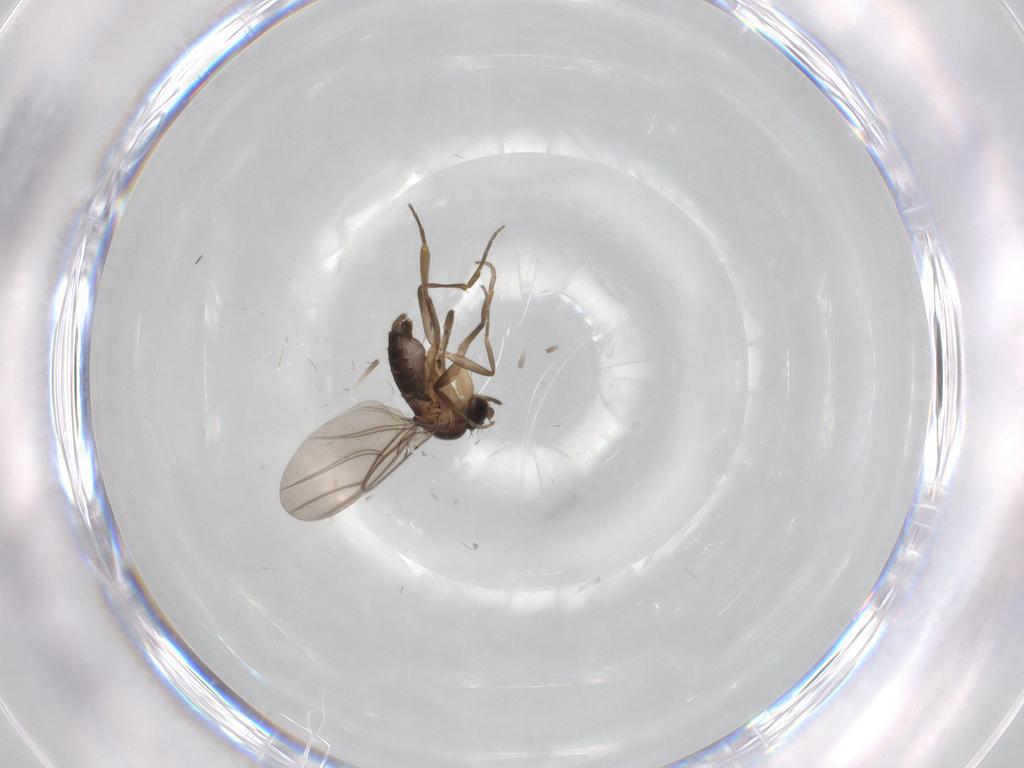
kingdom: Animalia
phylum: Arthropoda
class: Insecta
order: Diptera
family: Phoridae
